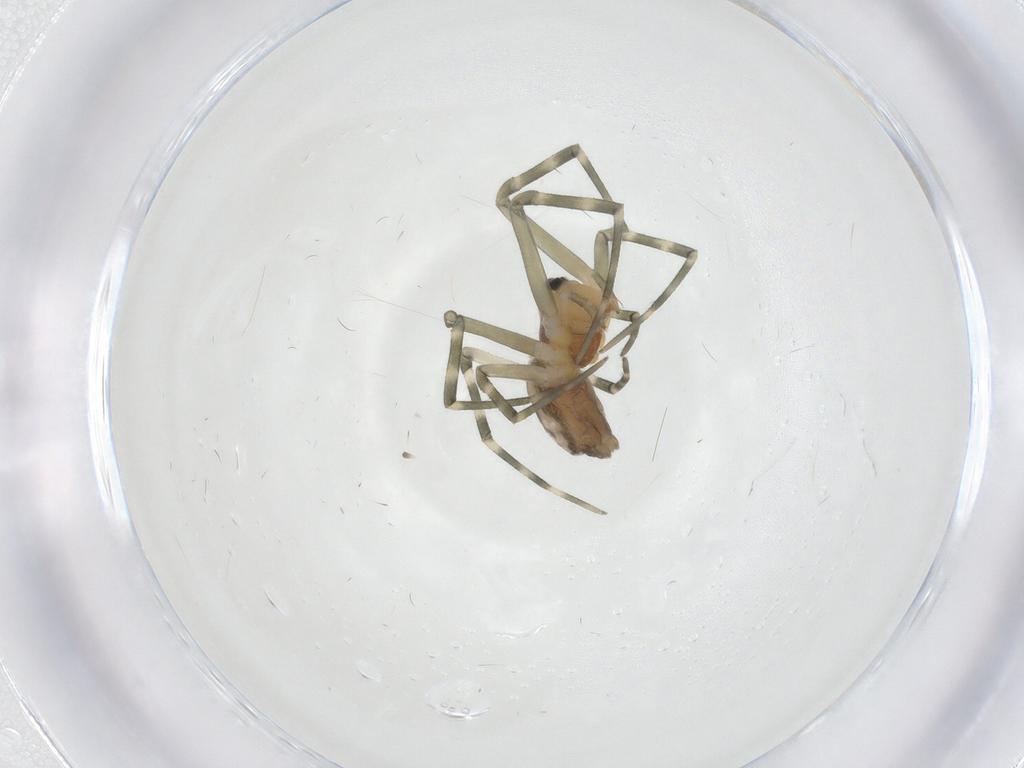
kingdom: Animalia
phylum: Arthropoda
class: Arachnida
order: Araneae
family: Linyphiidae
